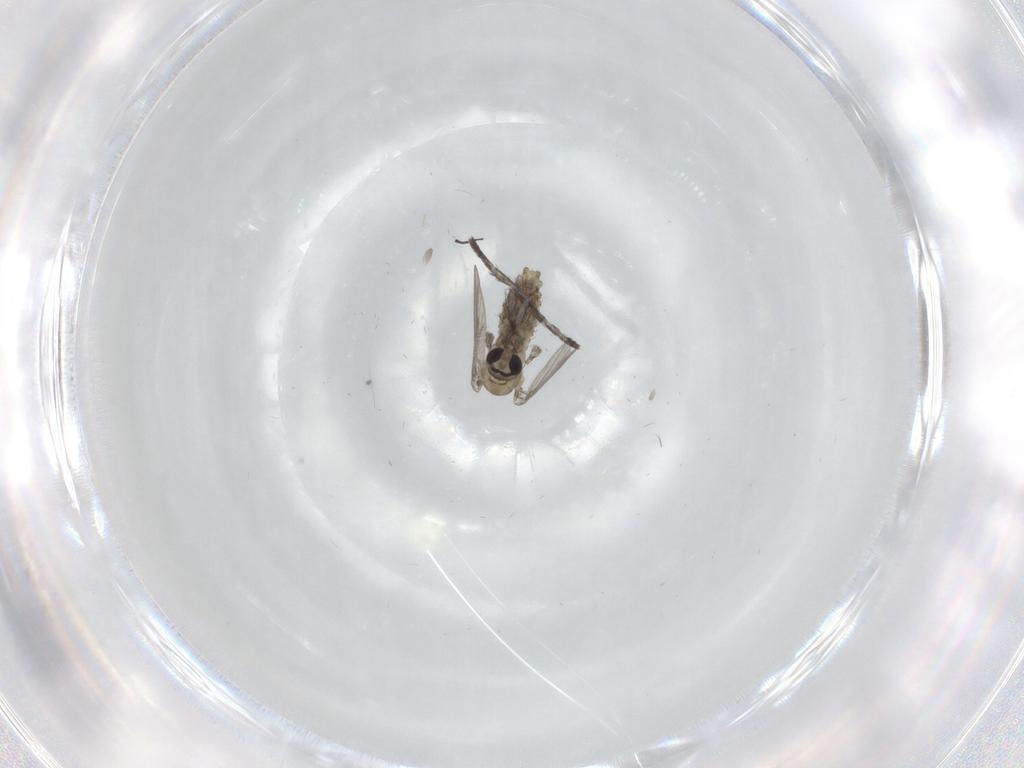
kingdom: Animalia
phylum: Arthropoda
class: Insecta
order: Diptera
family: Psychodidae
